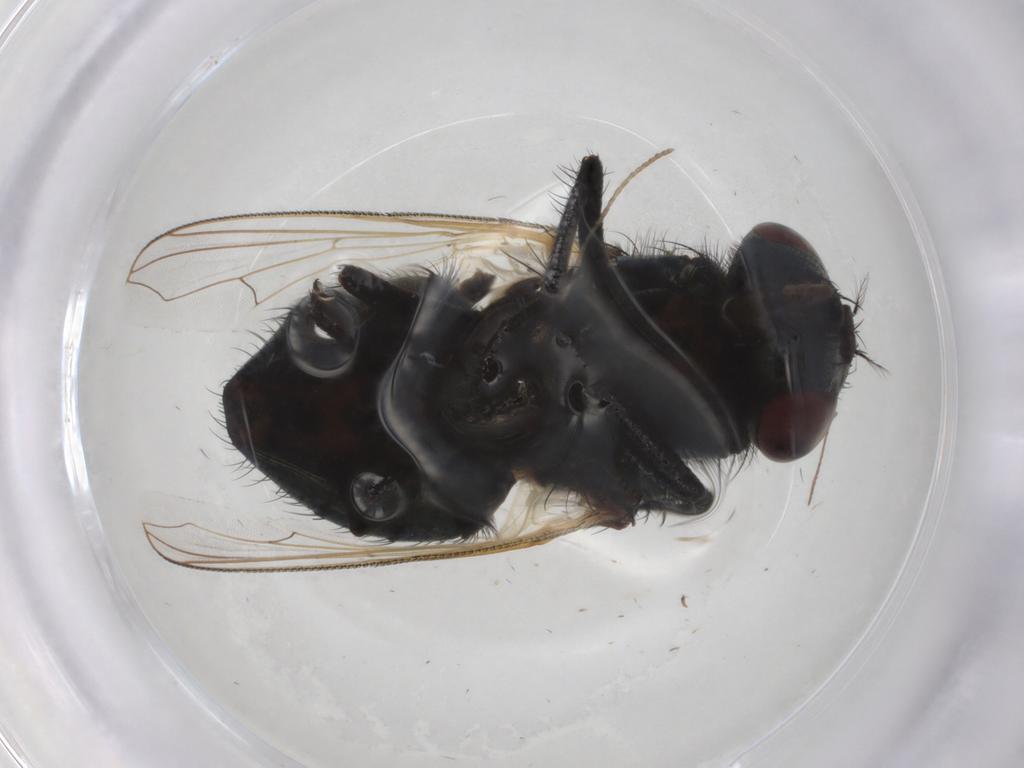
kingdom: Animalia
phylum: Arthropoda
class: Insecta
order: Diptera
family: Muscidae
